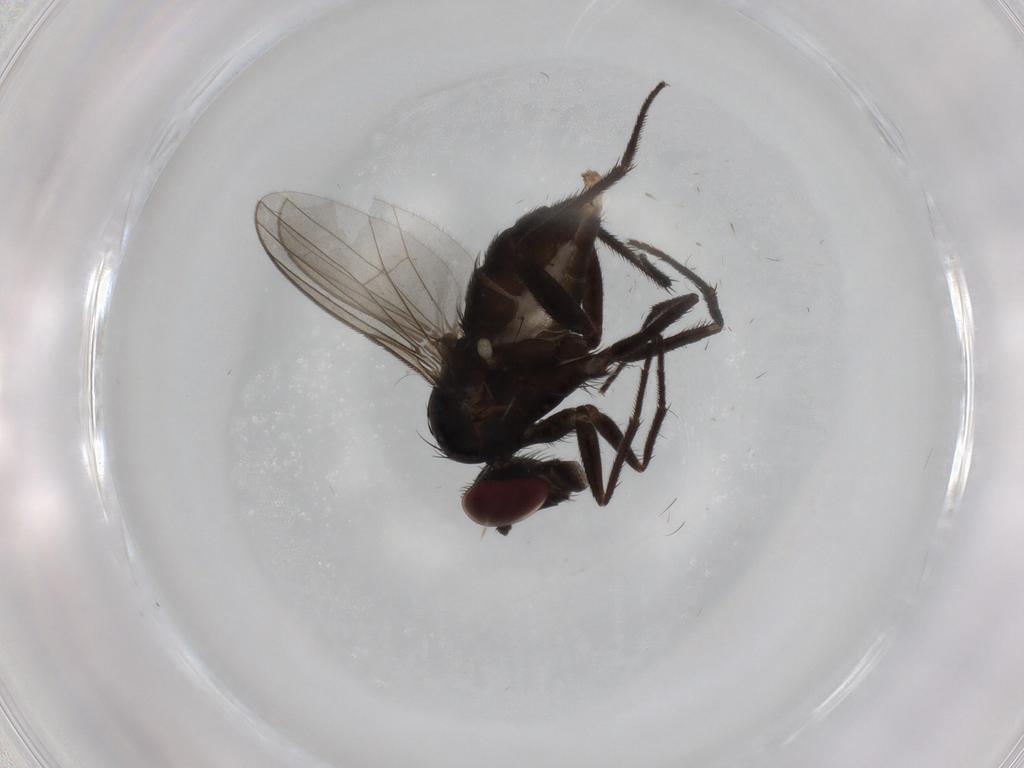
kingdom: Animalia
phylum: Arthropoda
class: Insecta
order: Diptera
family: Dolichopodidae
